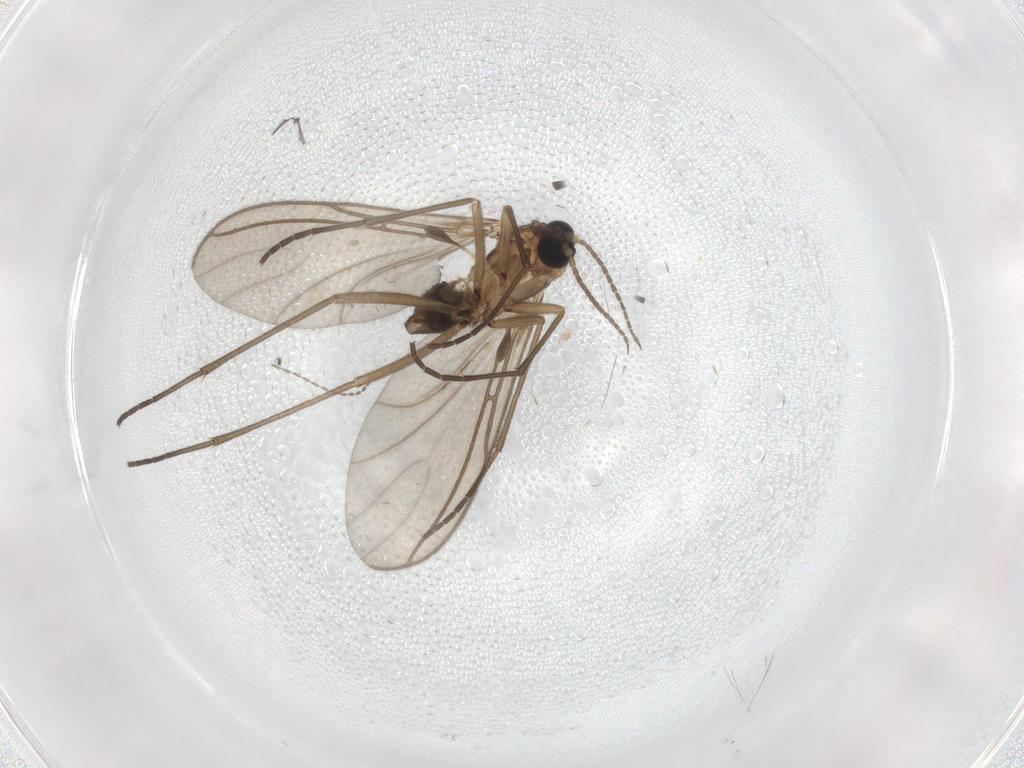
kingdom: Animalia
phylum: Arthropoda
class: Insecta
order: Diptera
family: Sciaridae
